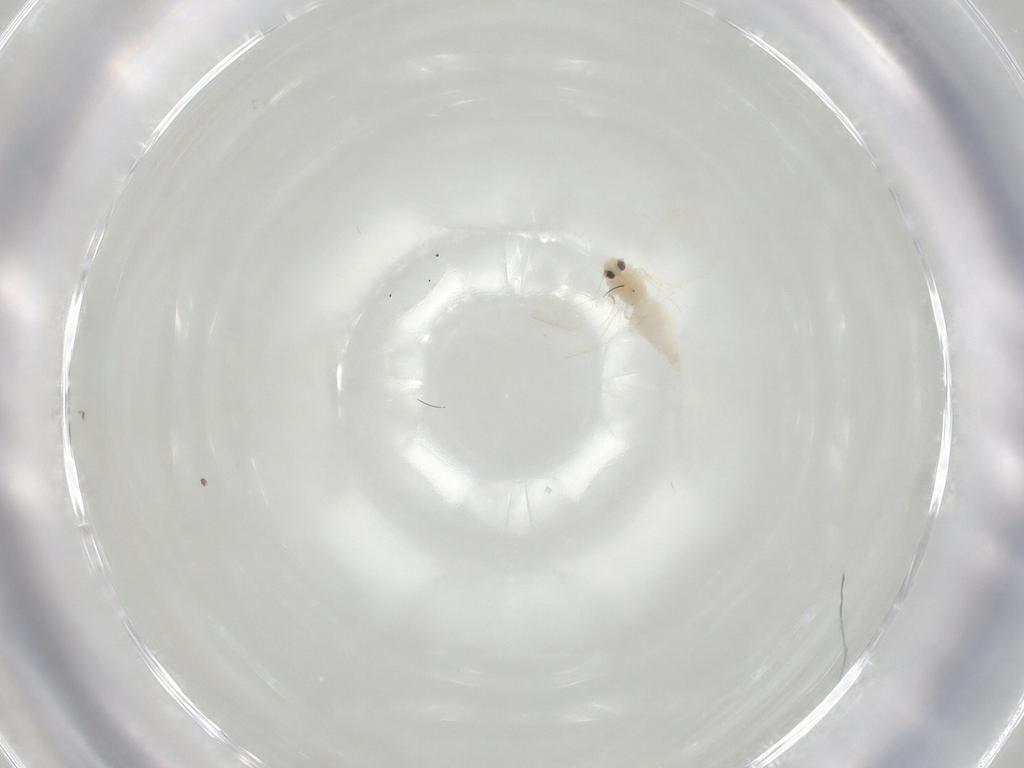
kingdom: Animalia
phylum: Arthropoda
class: Insecta
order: Hemiptera
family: Aleyrodidae
